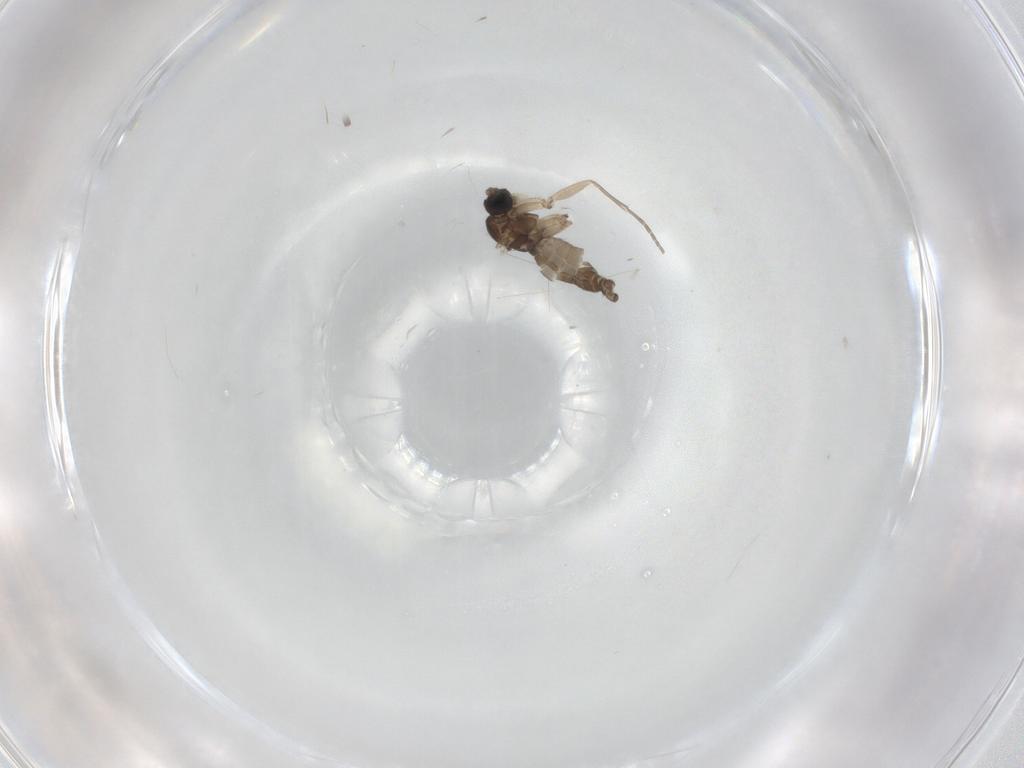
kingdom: Animalia
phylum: Arthropoda
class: Insecta
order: Diptera
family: Sciaridae
